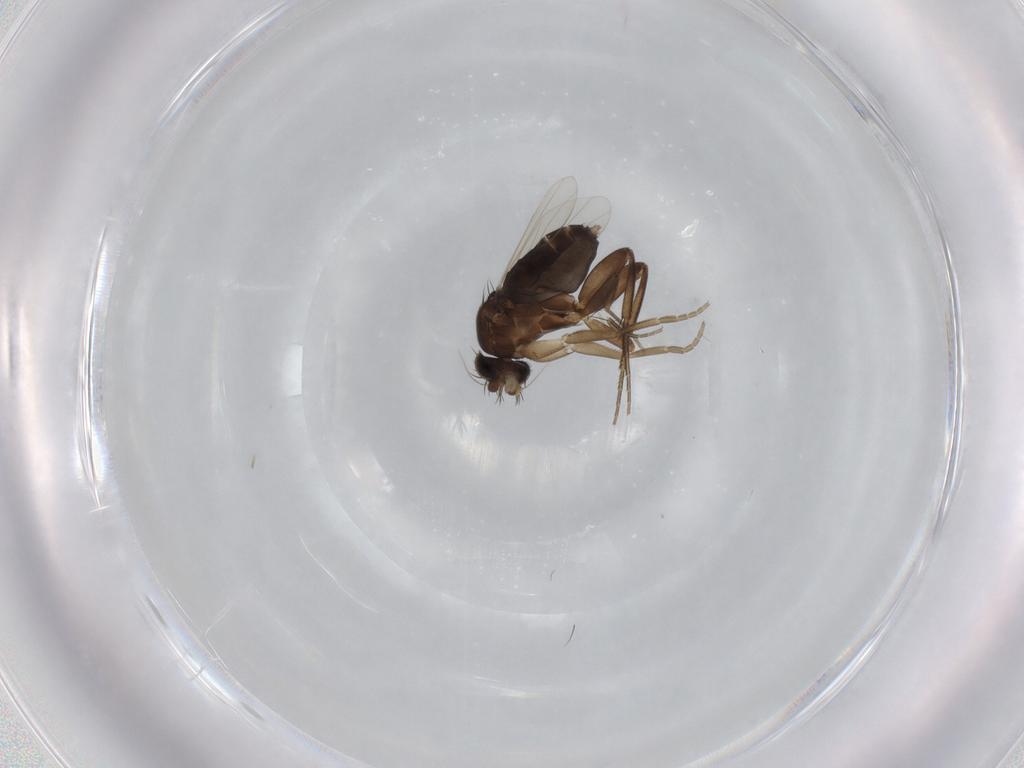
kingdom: Animalia
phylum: Arthropoda
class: Insecta
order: Diptera
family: Phoridae
